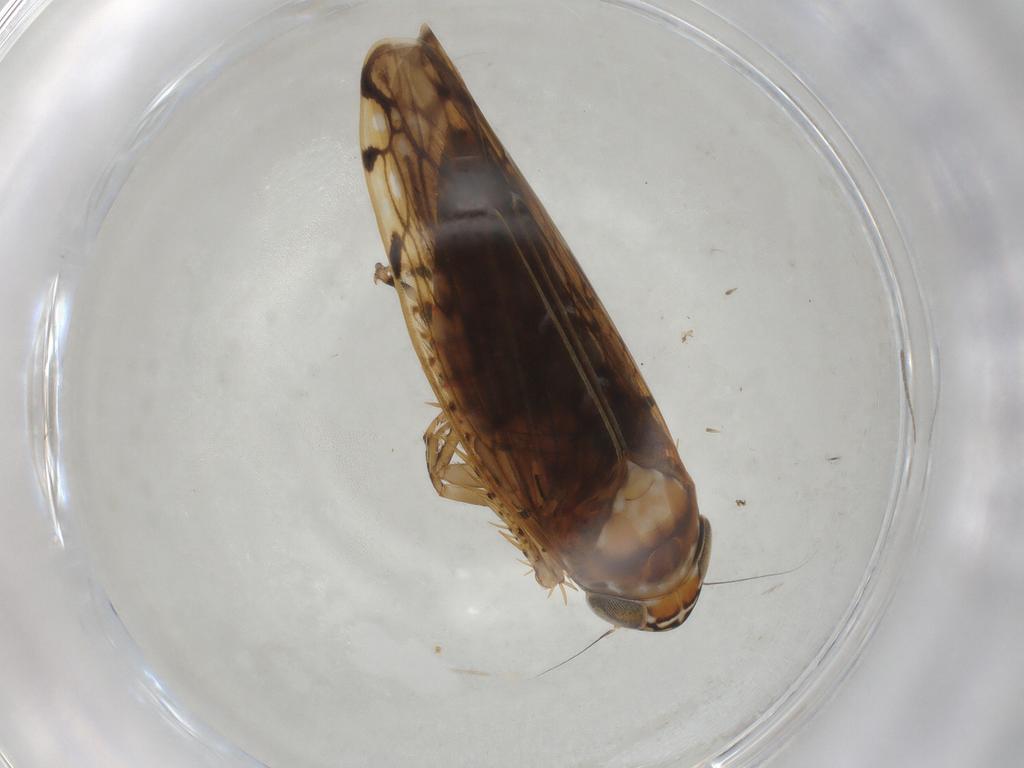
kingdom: Animalia
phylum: Arthropoda
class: Insecta
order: Hemiptera
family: Cicadellidae
